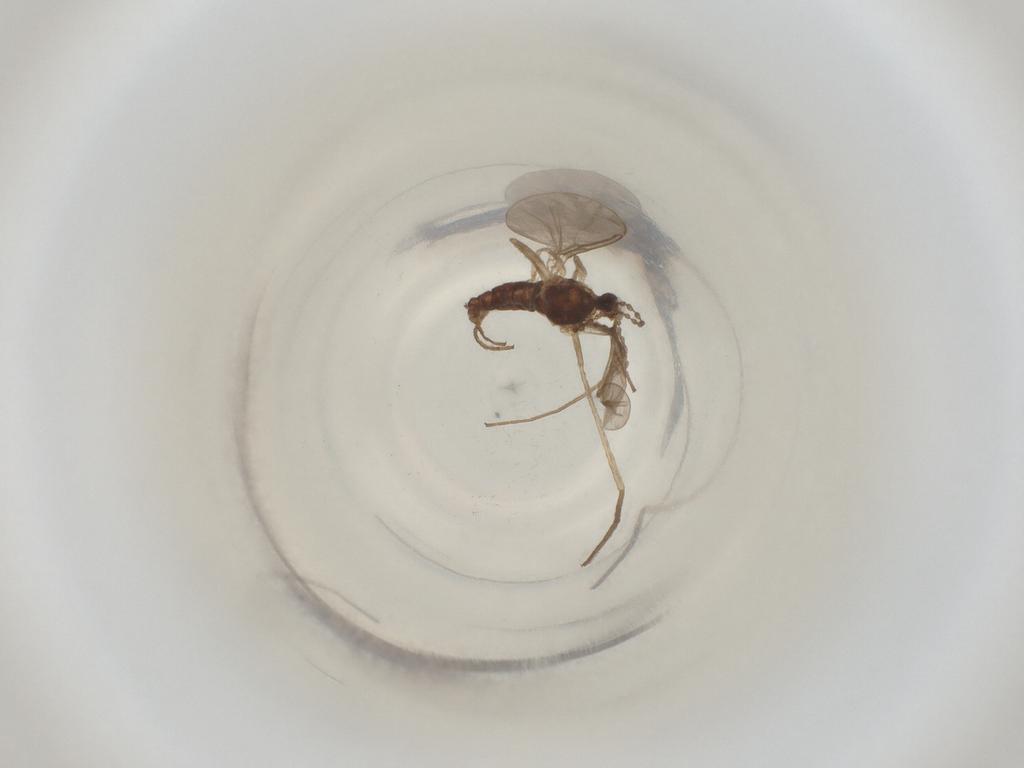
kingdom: Animalia
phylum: Arthropoda
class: Insecta
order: Diptera
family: Cecidomyiidae
